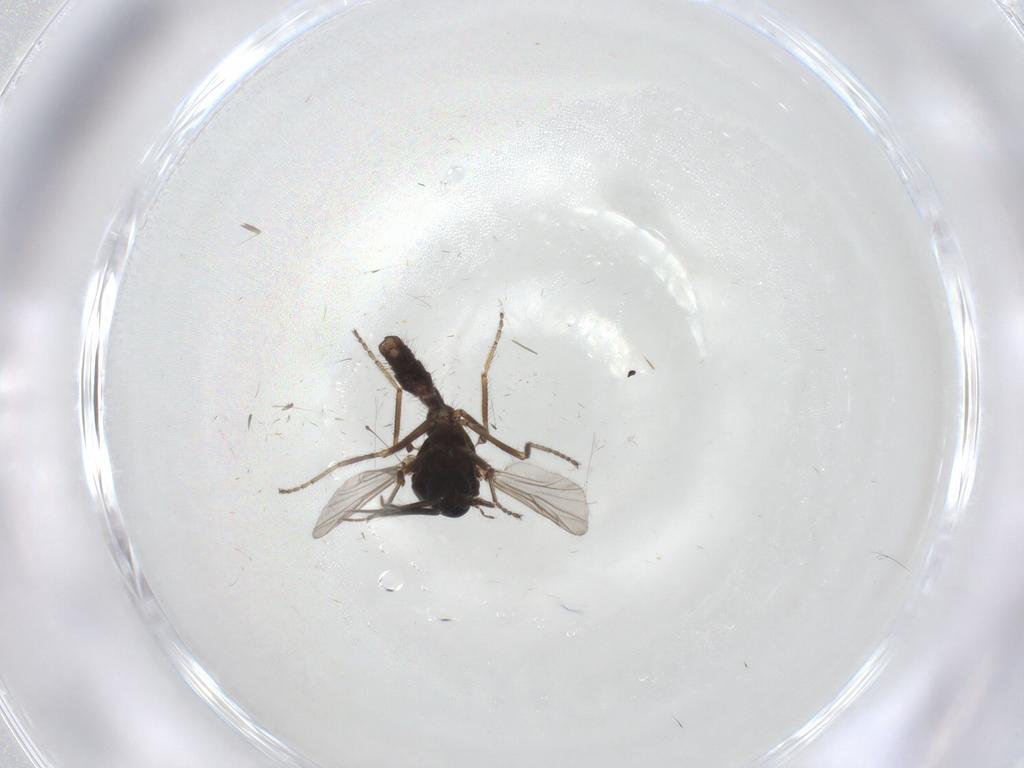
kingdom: Animalia
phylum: Arthropoda
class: Insecta
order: Diptera
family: Ceratopogonidae
